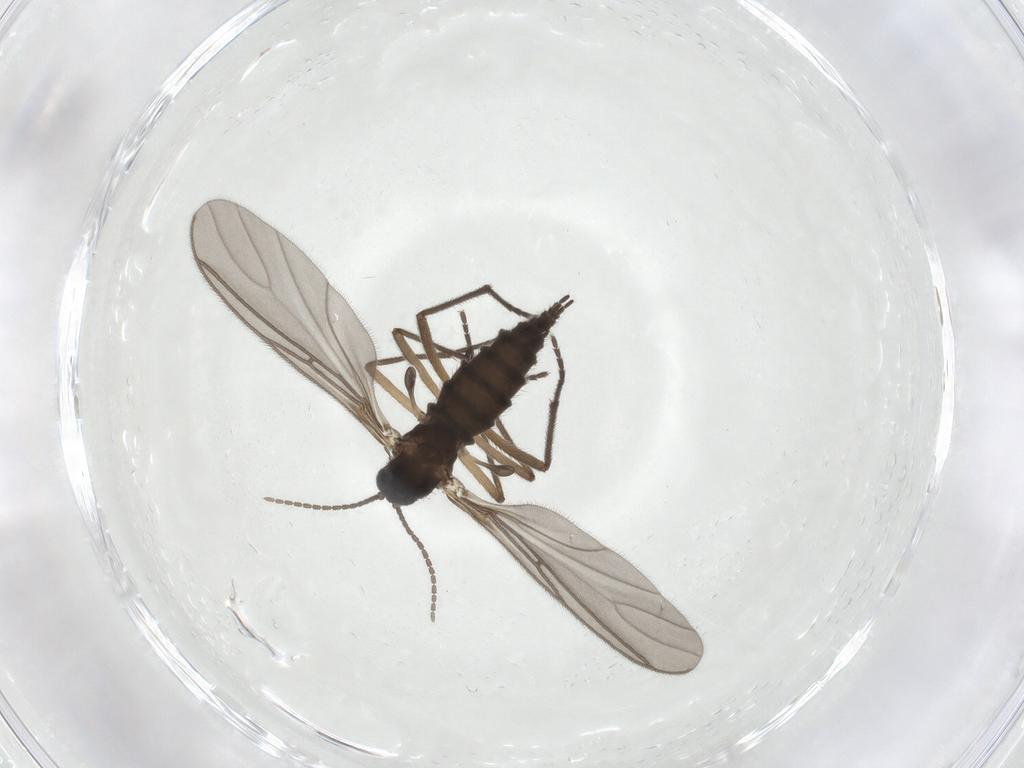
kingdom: Animalia
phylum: Arthropoda
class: Insecta
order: Diptera
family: Sciaridae
